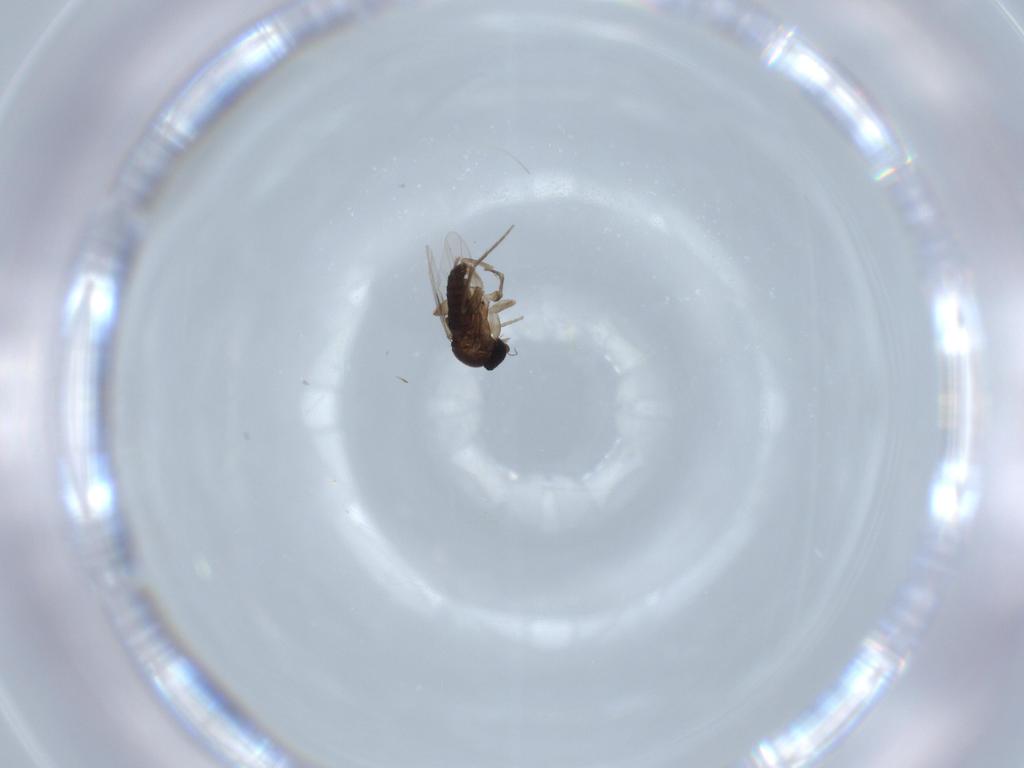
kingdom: Animalia
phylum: Arthropoda
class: Insecta
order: Diptera
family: Phoridae
